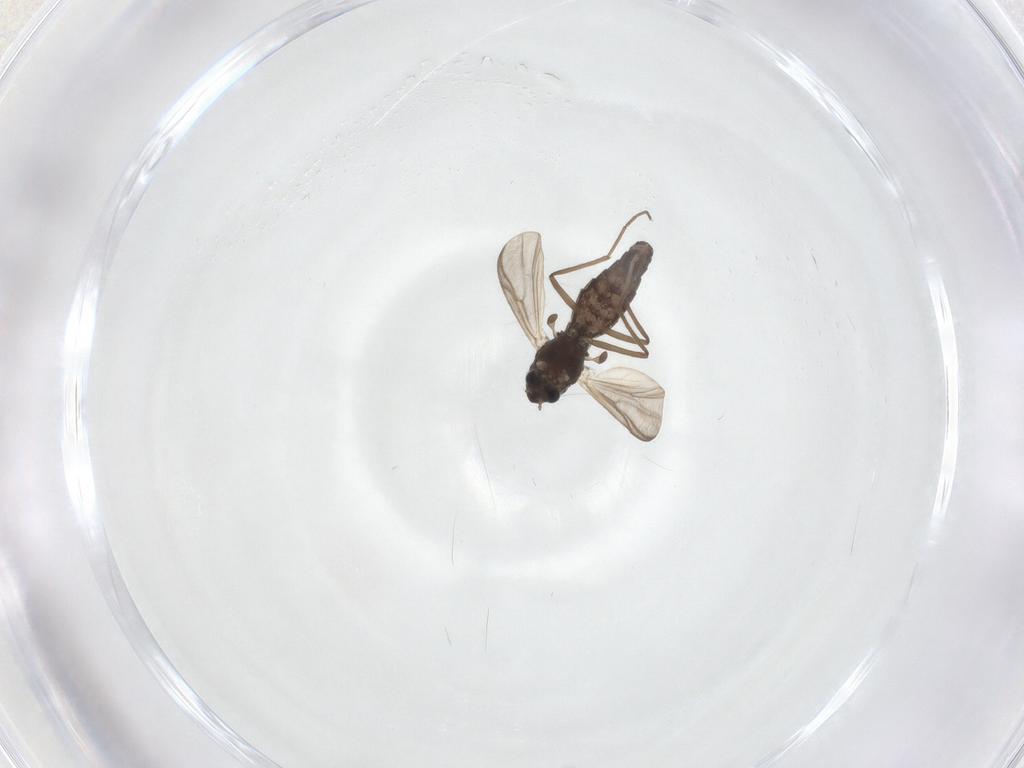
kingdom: Animalia
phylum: Arthropoda
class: Insecta
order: Diptera
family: Chironomidae
